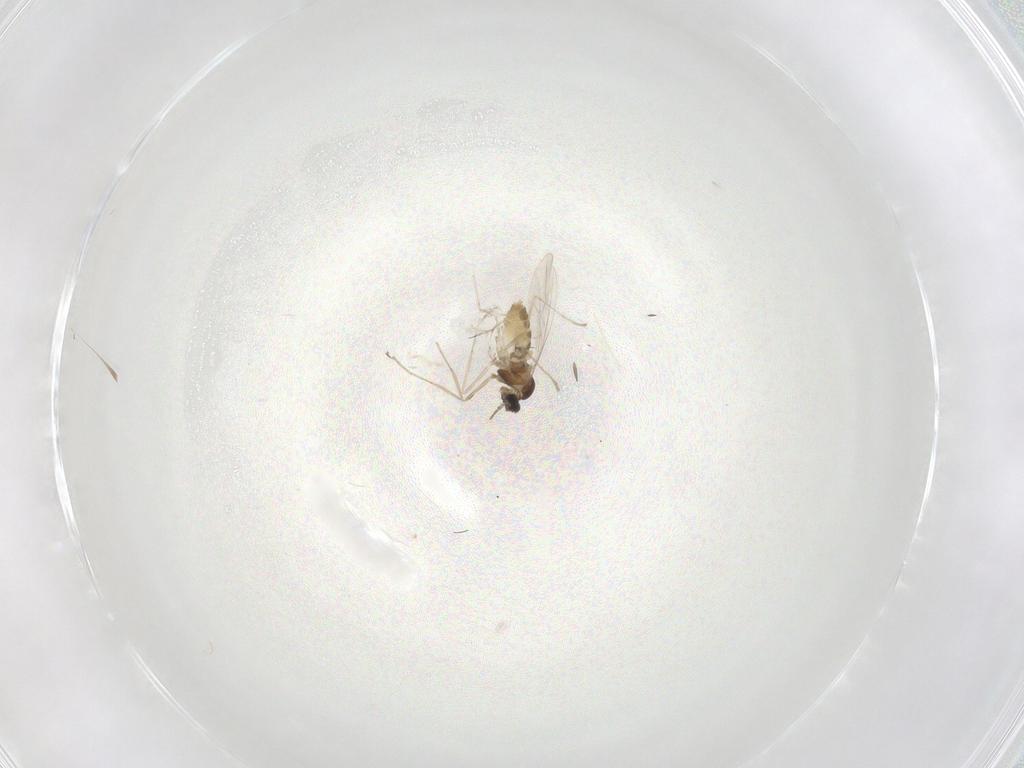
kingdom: Animalia
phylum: Arthropoda
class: Insecta
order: Diptera
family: Cecidomyiidae
